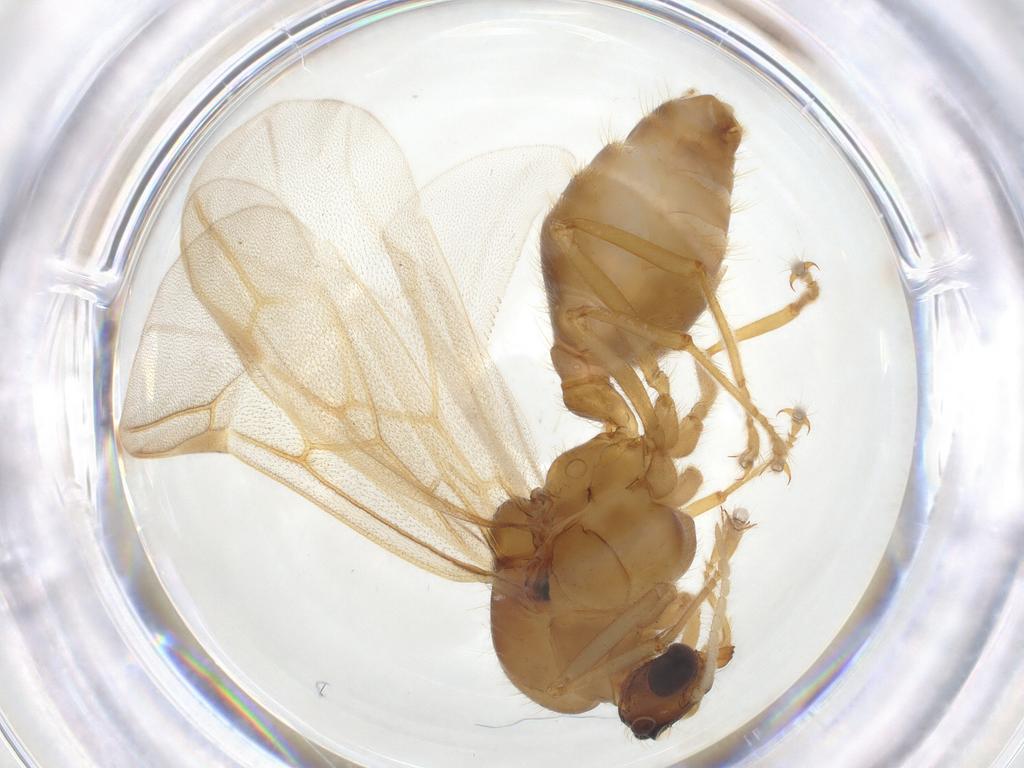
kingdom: Animalia
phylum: Arthropoda
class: Insecta
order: Hymenoptera
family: Formicidae
